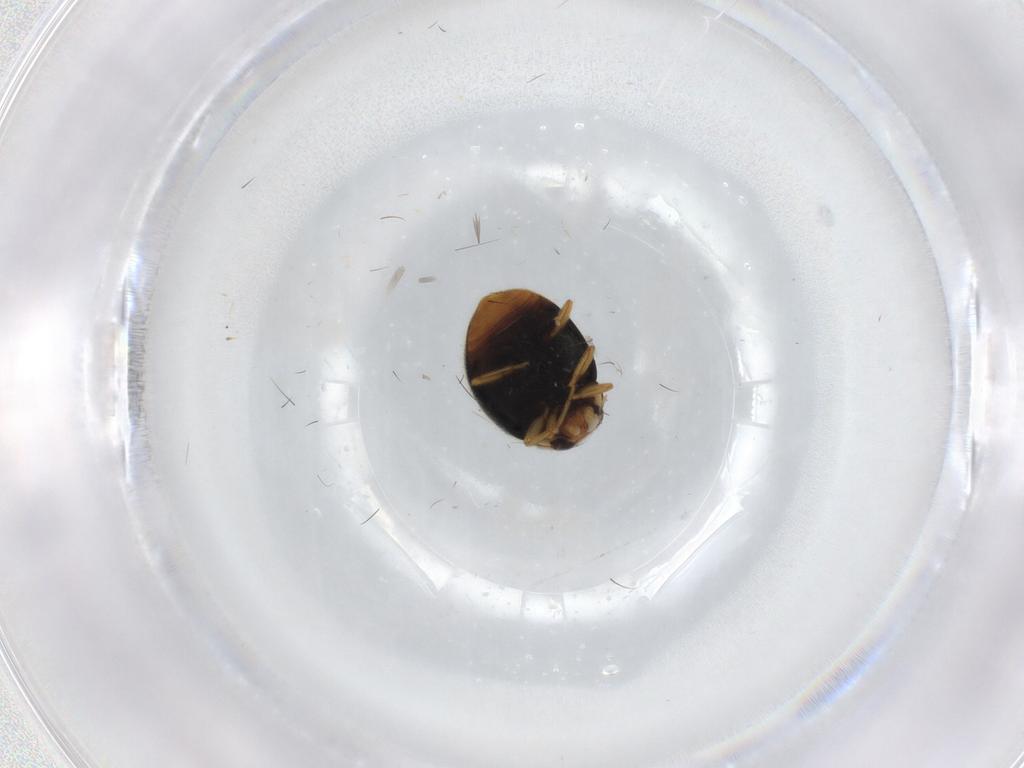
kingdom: Animalia
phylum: Arthropoda
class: Insecta
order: Coleoptera
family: Coccinellidae
